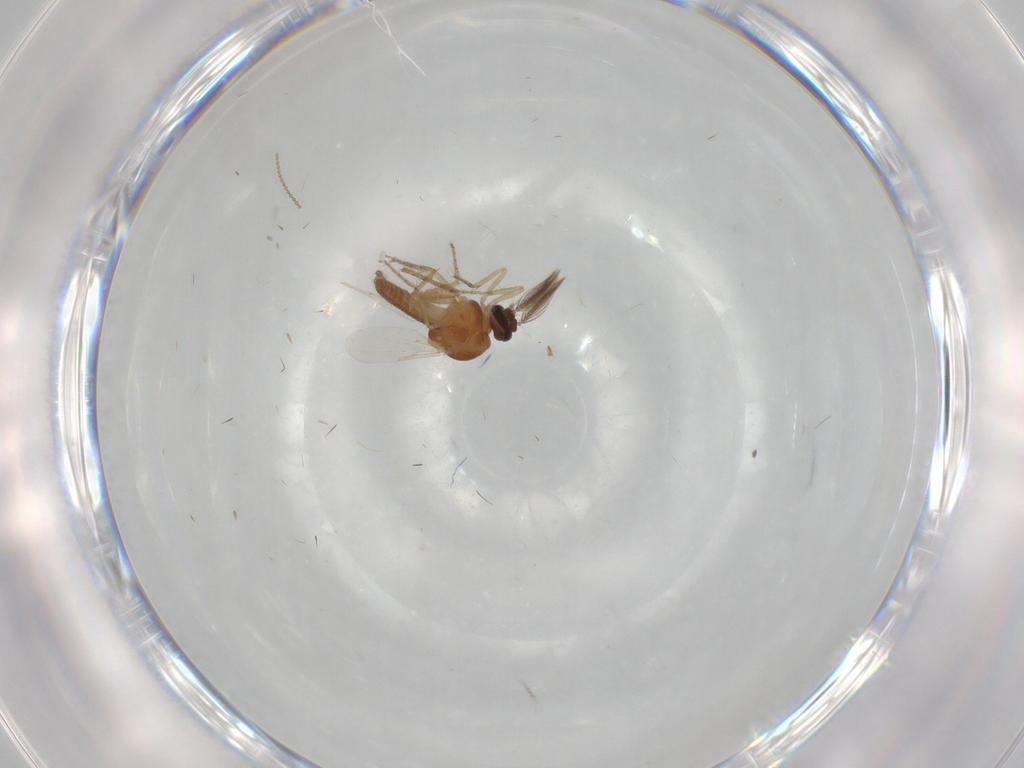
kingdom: Animalia
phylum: Arthropoda
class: Insecta
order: Diptera
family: Ceratopogonidae
